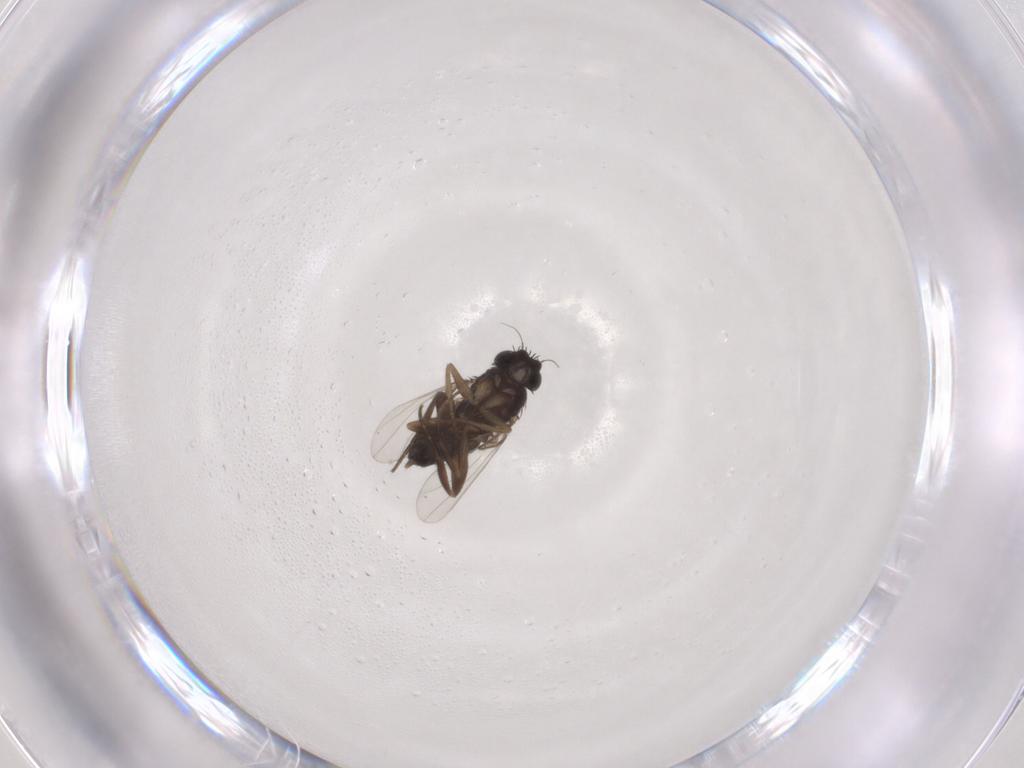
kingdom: Animalia
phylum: Arthropoda
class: Insecta
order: Diptera
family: Phoridae
